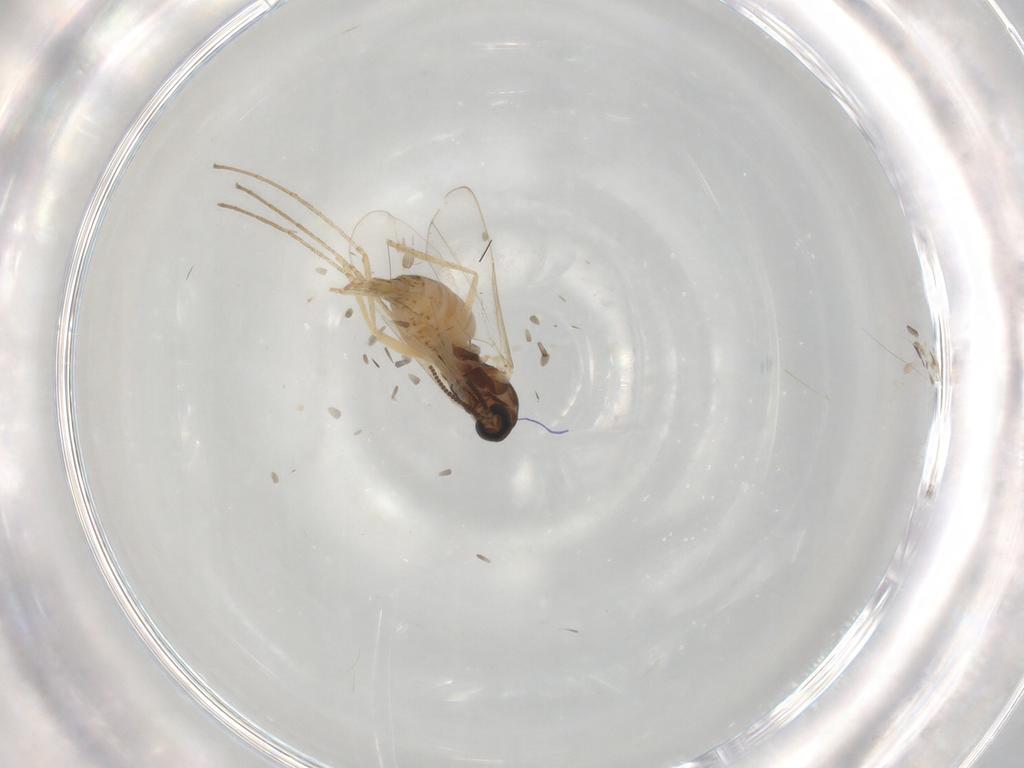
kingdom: Animalia
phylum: Arthropoda
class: Insecta
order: Diptera
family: Cecidomyiidae
